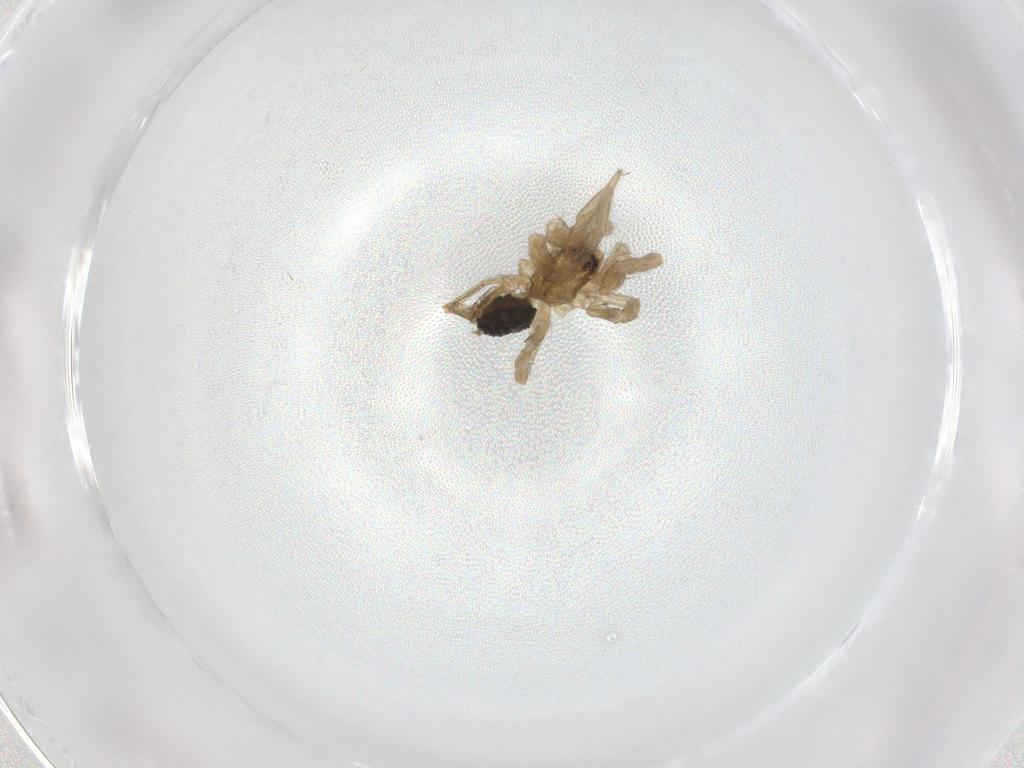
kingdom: Animalia
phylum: Arthropoda
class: Arachnida
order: Araneae
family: Hahniidae
